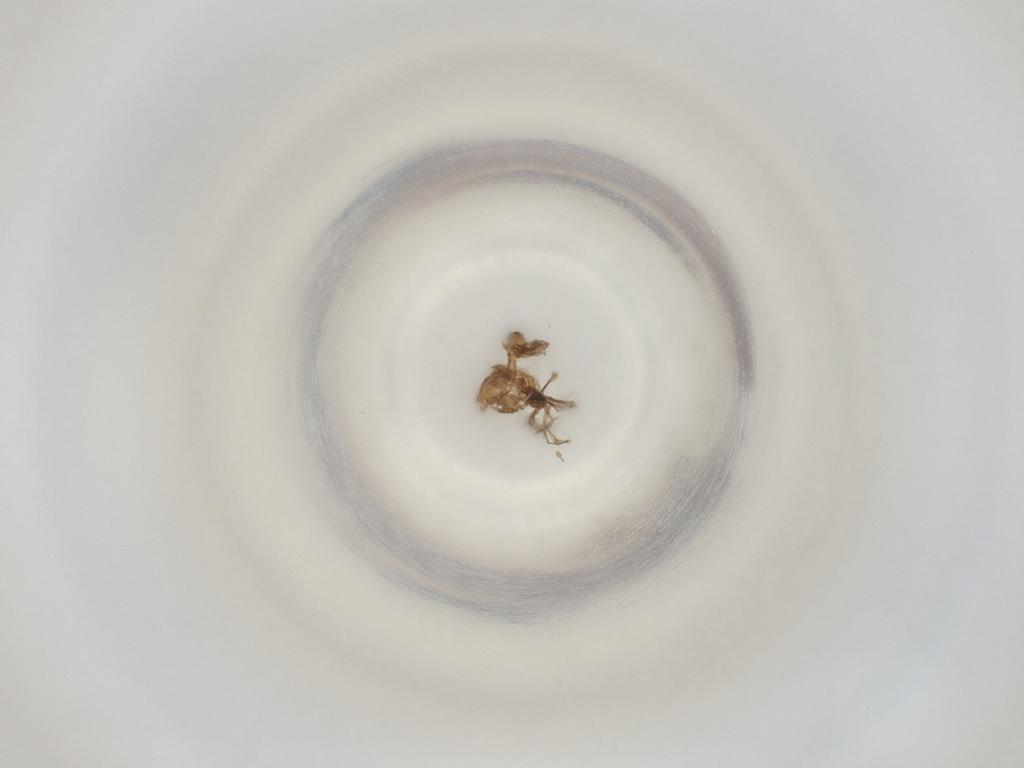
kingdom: Animalia
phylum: Arthropoda
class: Insecta
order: Diptera
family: Cecidomyiidae
